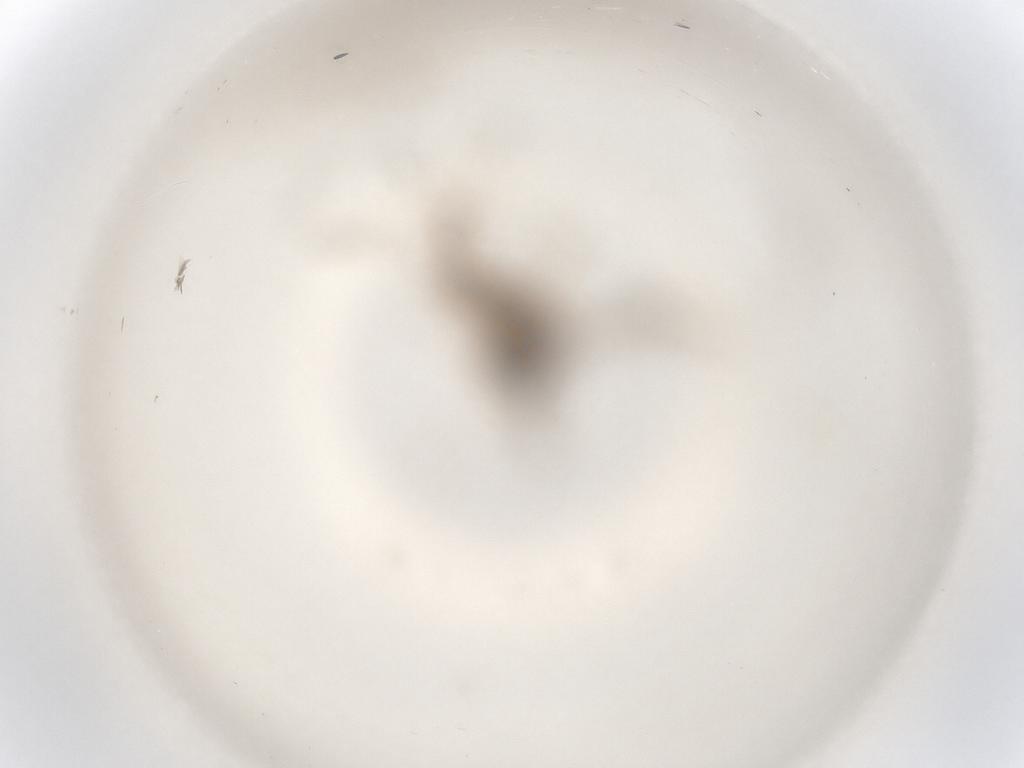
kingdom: Animalia
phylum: Arthropoda
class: Insecta
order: Diptera
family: Cecidomyiidae
